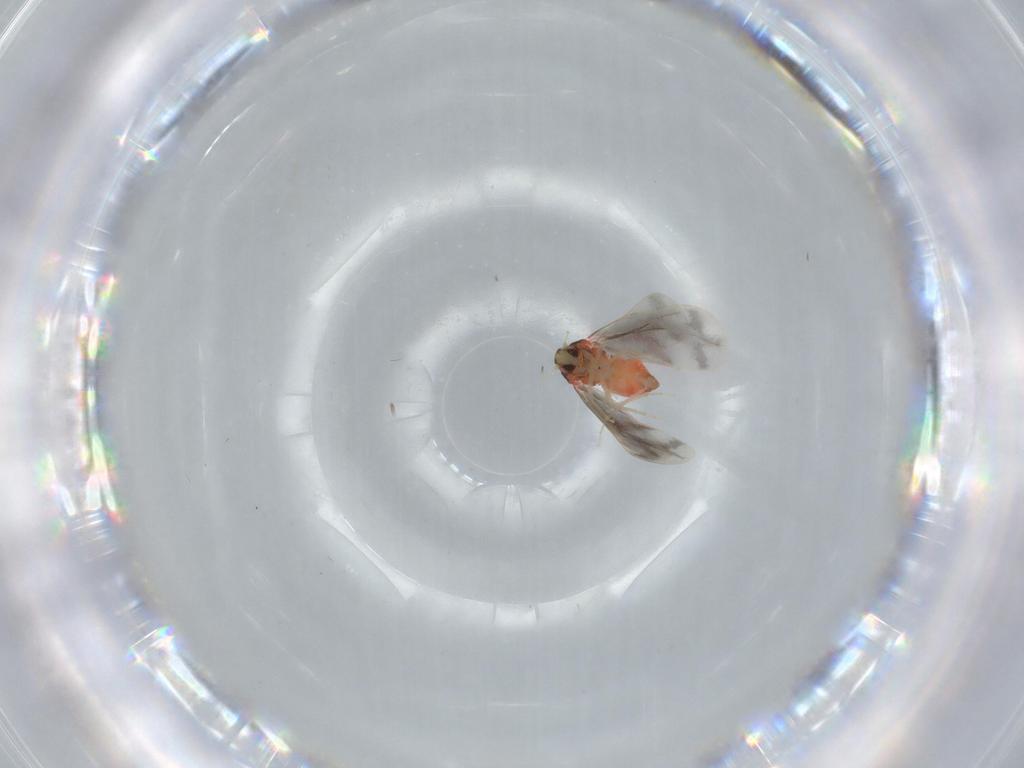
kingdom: Animalia
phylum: Arthropoda
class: Insecta
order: Hemiptera
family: Aleyrodidae
